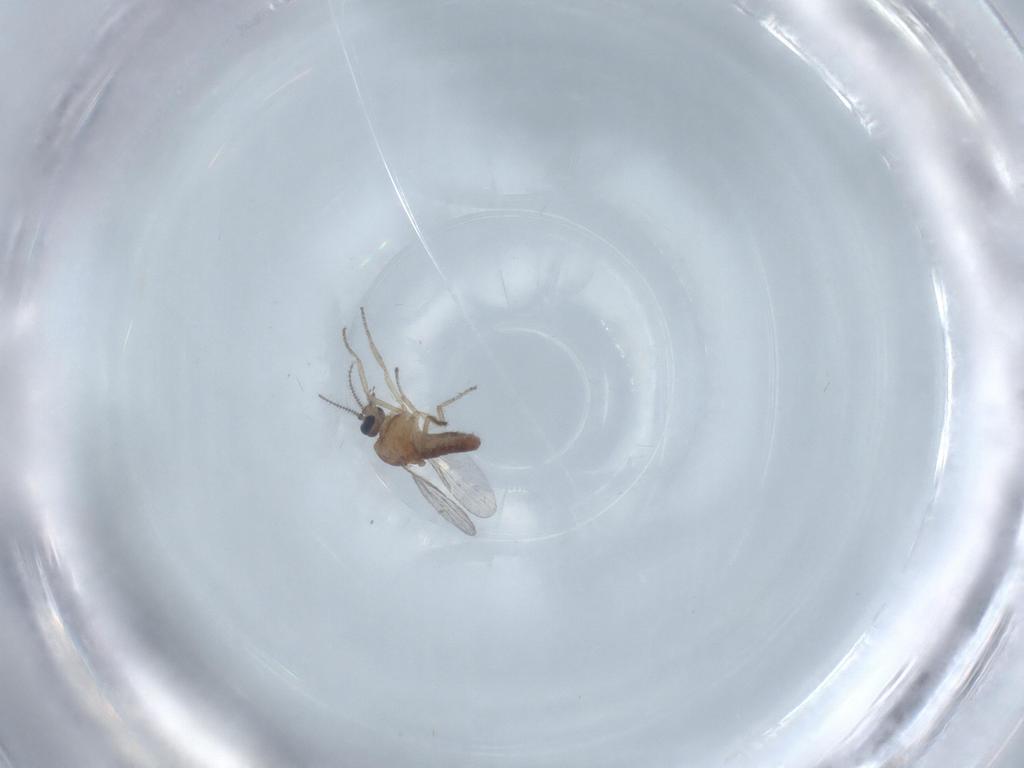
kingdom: Animalia
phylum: Arthropoda
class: Insecta
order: Diptera
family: Ceratopogonidae
